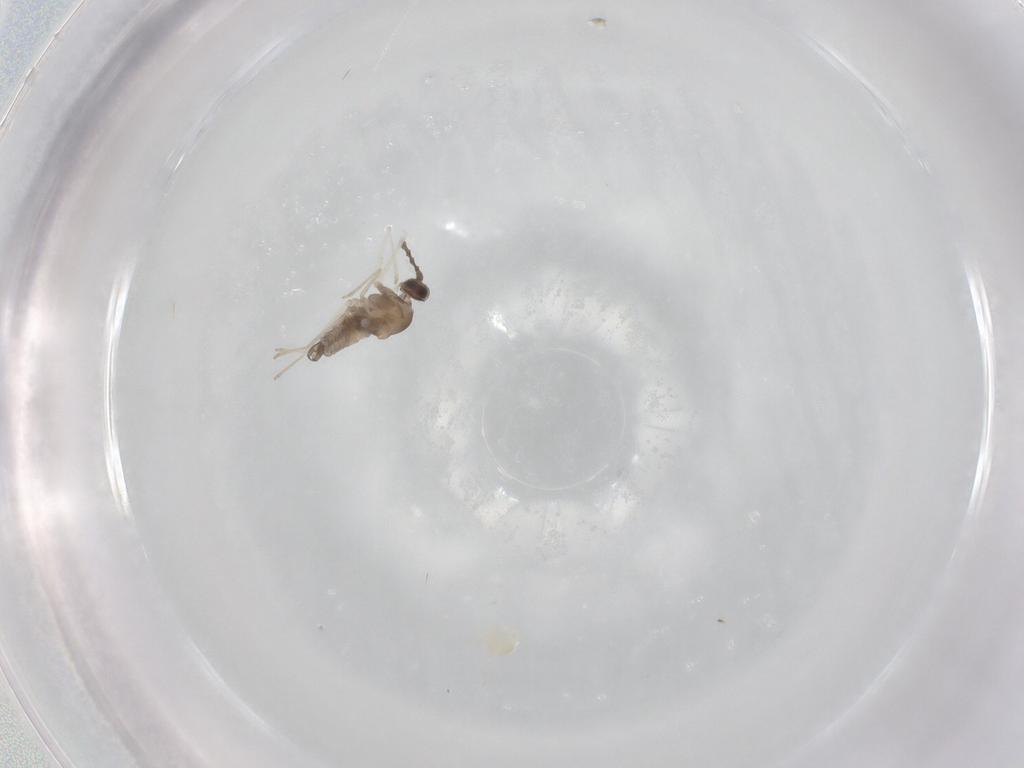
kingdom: Animalia
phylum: Arthropoda
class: Insecta
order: Diptera
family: Cecidomyiidae
